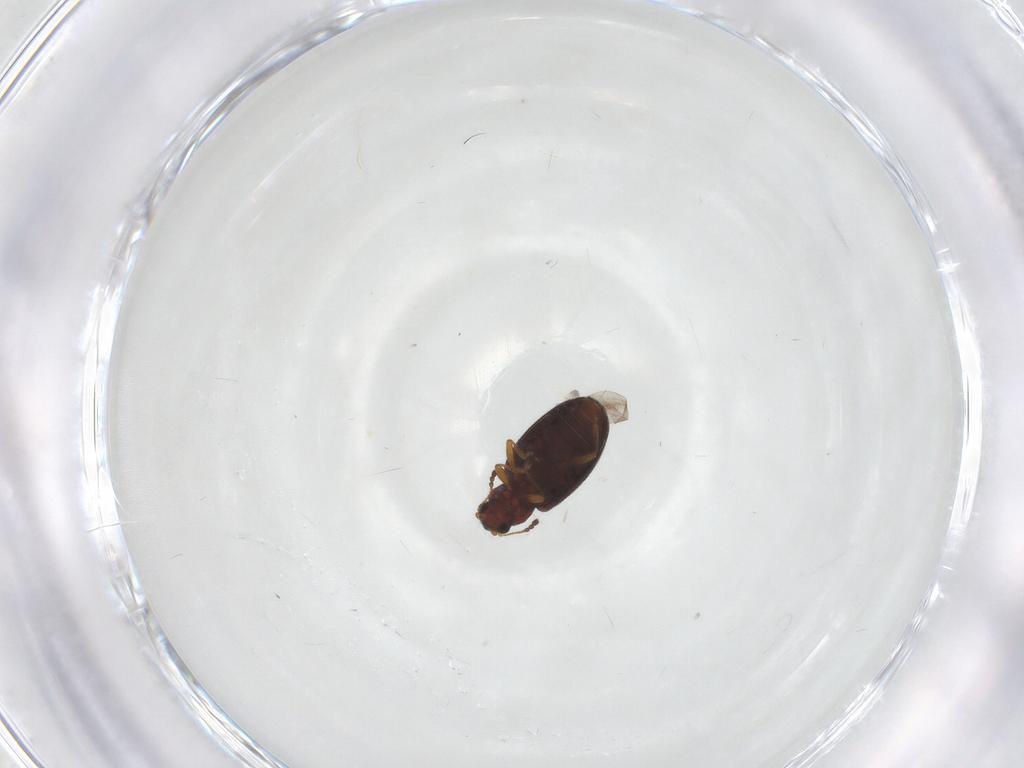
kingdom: Animalia
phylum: Arthropoda
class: Insecta
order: Coleoptera
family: Latridiidae
